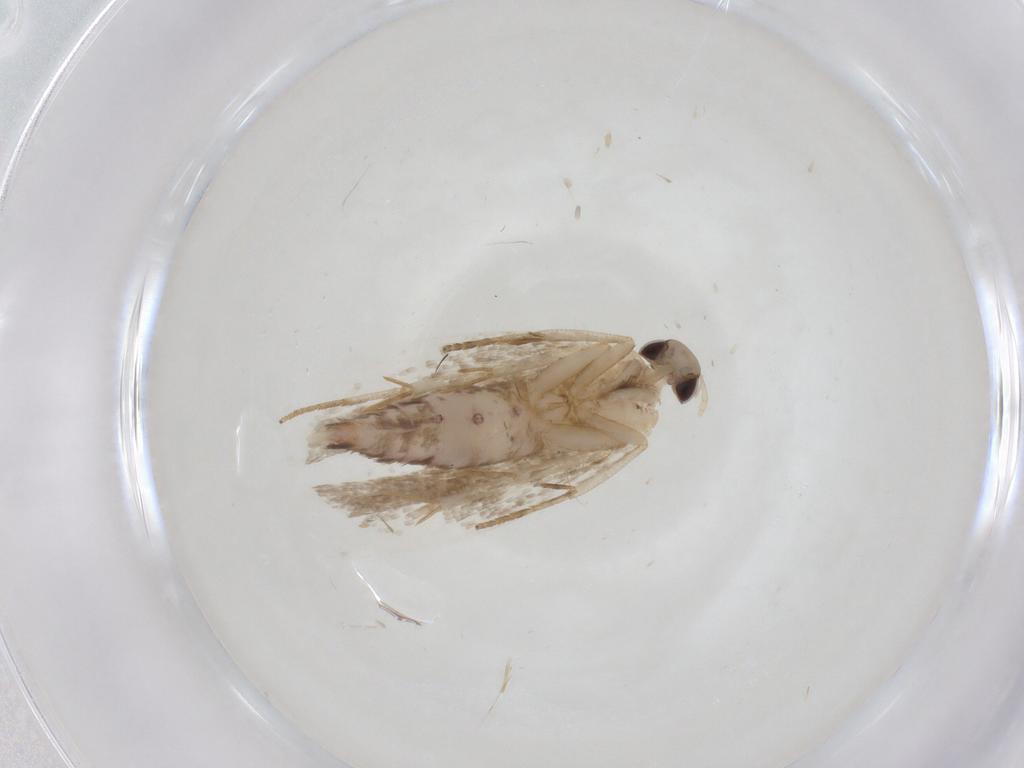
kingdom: Animalia
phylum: Arthropoda
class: Insecta
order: Lepidoptera
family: Gelechiidae
